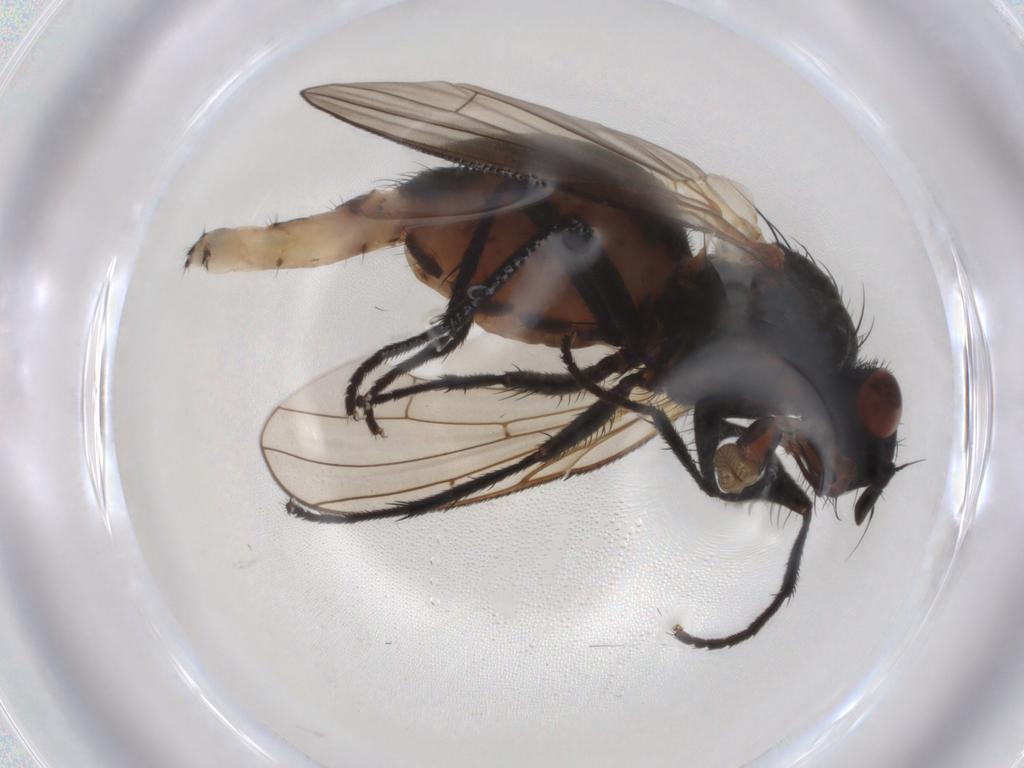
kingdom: Animalia
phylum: Arthropoda
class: Insecta
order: Diptera
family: Anthomyiidae
